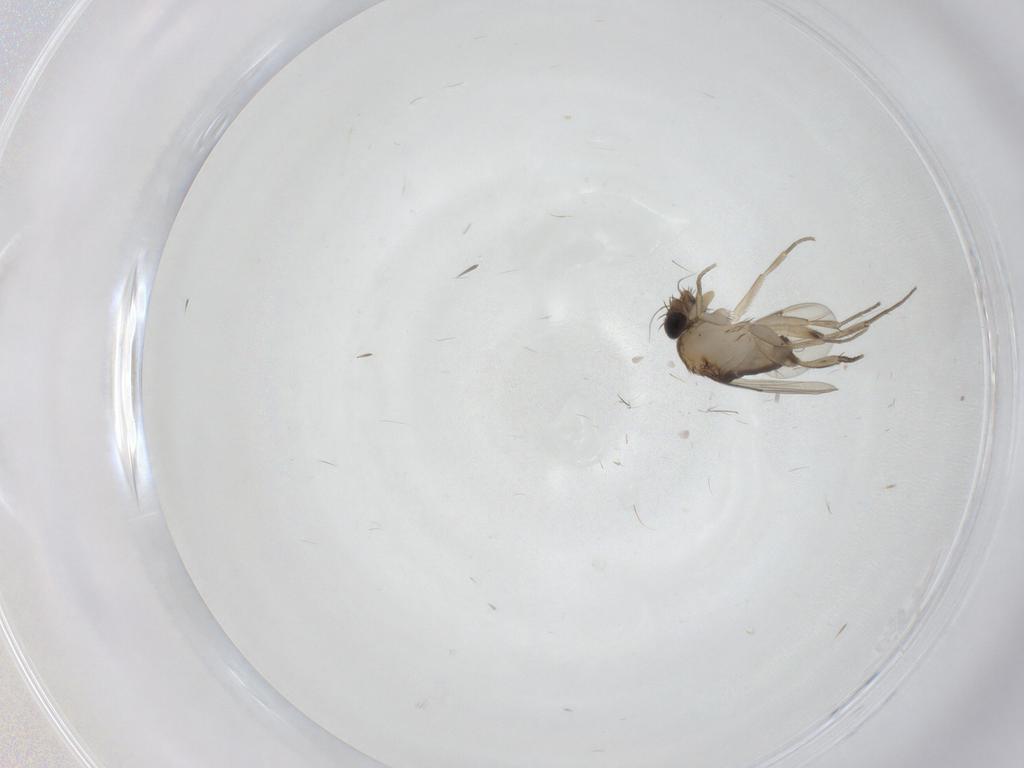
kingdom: Animalia
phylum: Arthropoda
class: Insecta
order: Diptera
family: Phoridae
